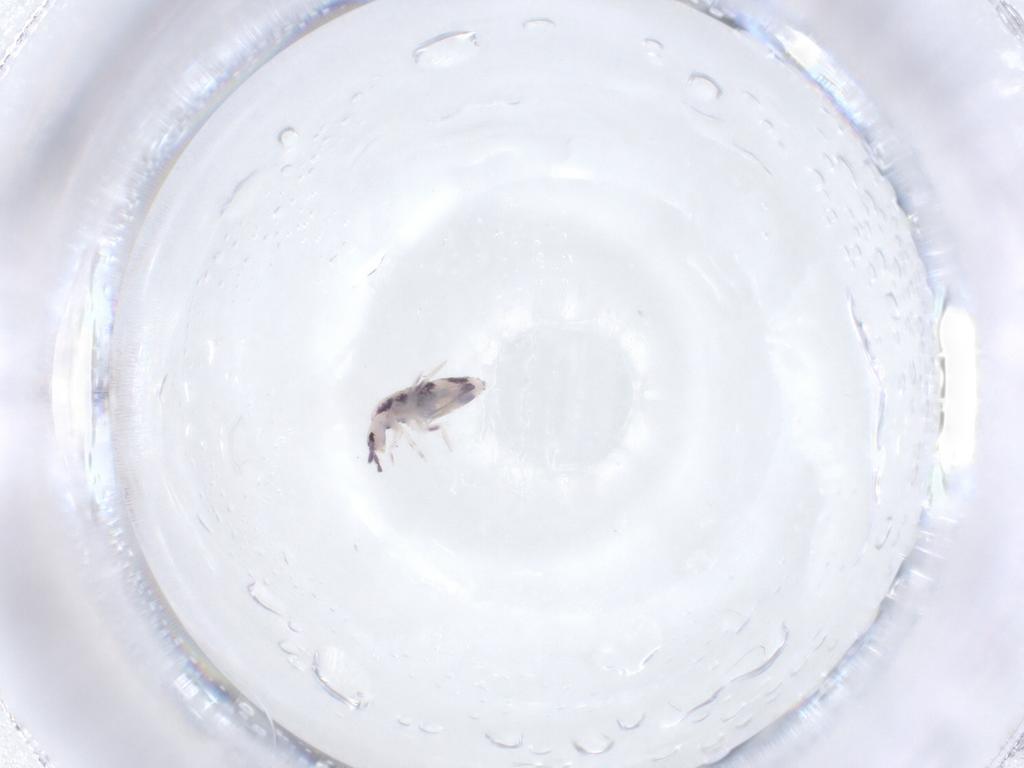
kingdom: Animalia
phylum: Arthropoda
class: Collembola
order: Entomobryomorpha
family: Entomobryidae
